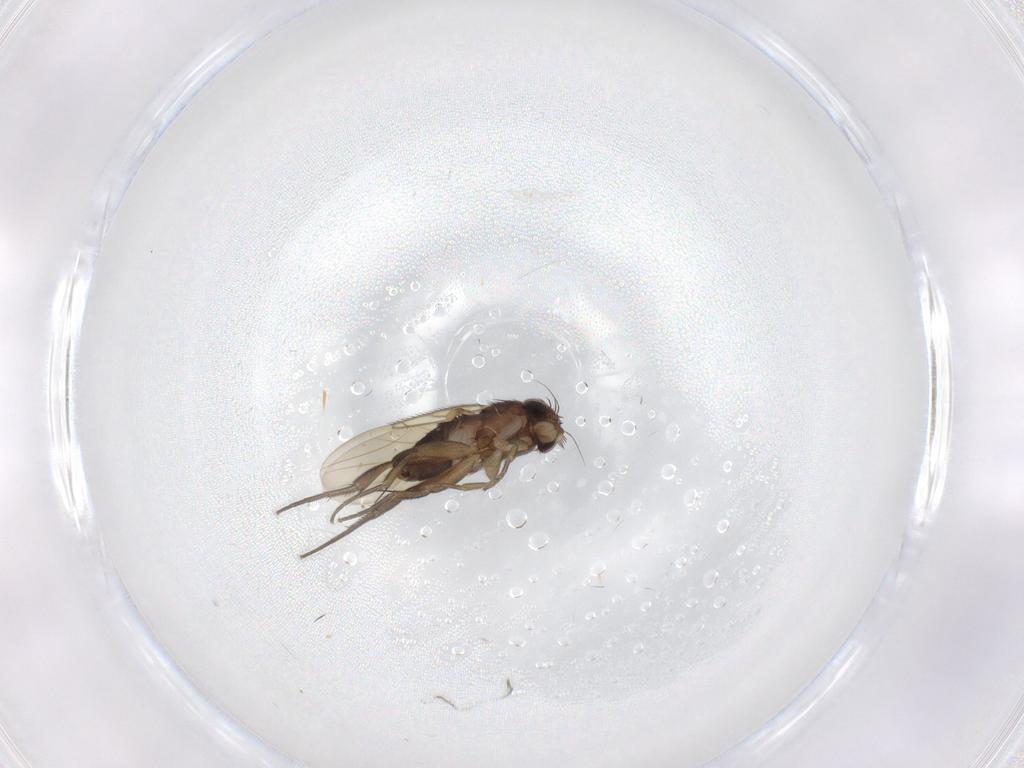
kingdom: Animalia
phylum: Arthropoda
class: Insecta
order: Diptera
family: Phoridae
